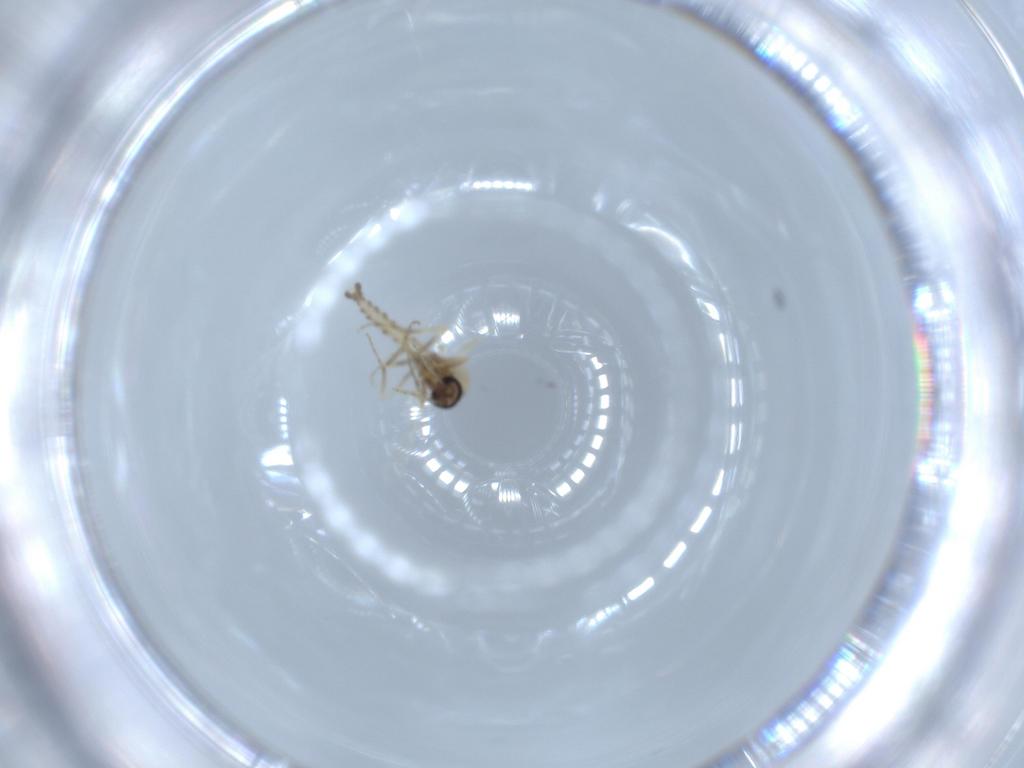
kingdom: Animalia
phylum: Arthropoda
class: Insecta
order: Diptera
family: Ceratopogonidae
